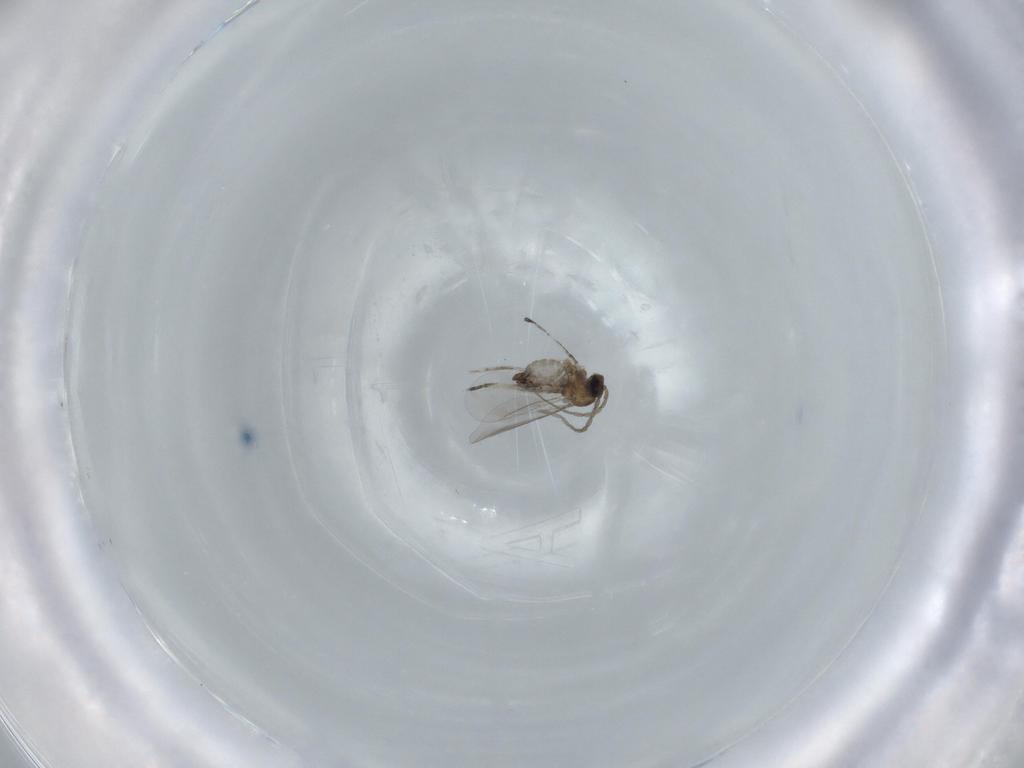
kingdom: Animalia
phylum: Arthropoda
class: Insecta
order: Diptera
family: Cecidomyiidae
